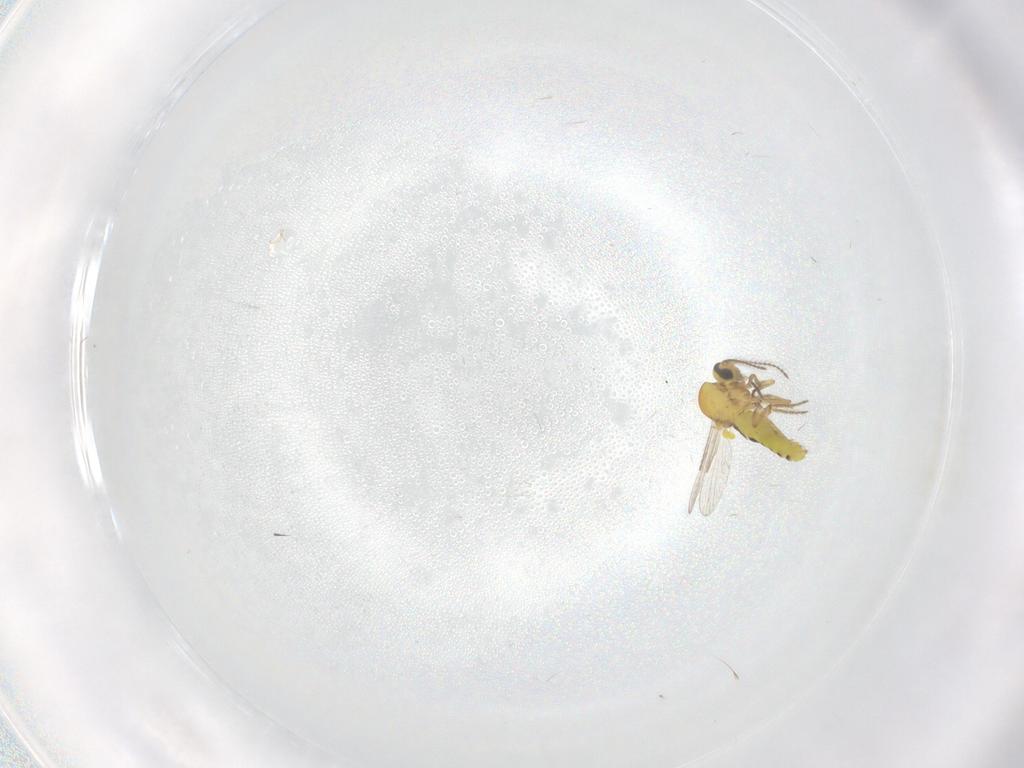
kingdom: Animalia
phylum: Arthropoda
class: Insecta
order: Diptera
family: Ceratopogonidae
